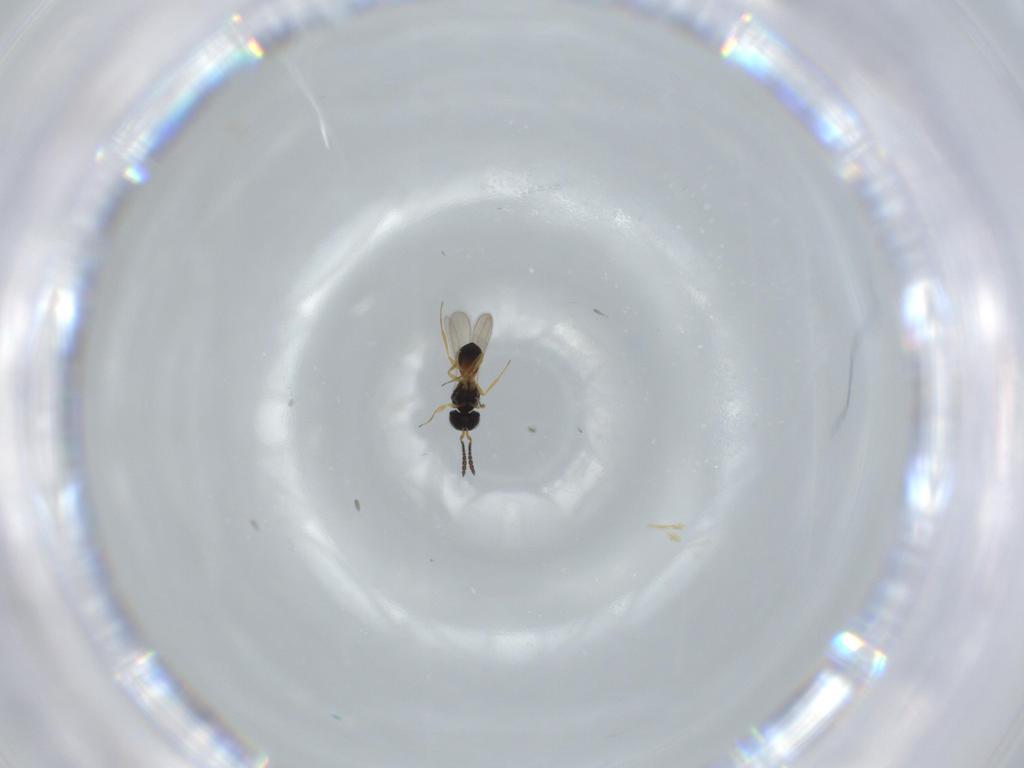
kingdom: Animalia
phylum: Arthropoda
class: Insecta
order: Hymenoptera
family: Scelionidae
